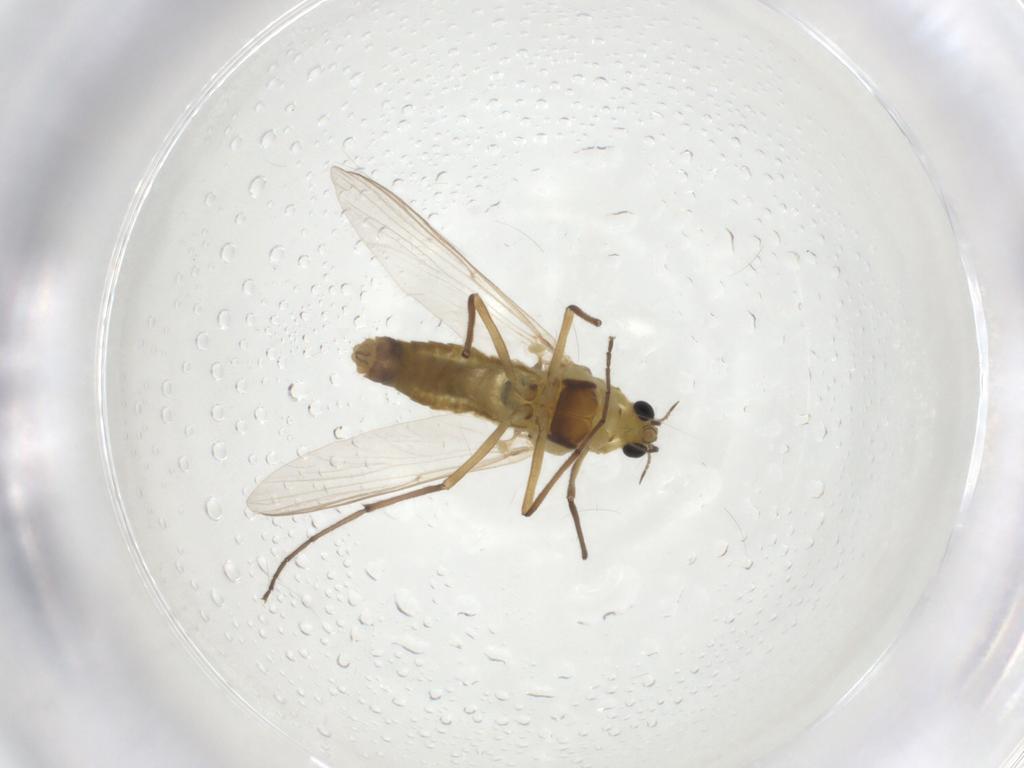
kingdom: Animalia
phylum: Arthropoda
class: Insecta
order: Diptera
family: Chironomidae
